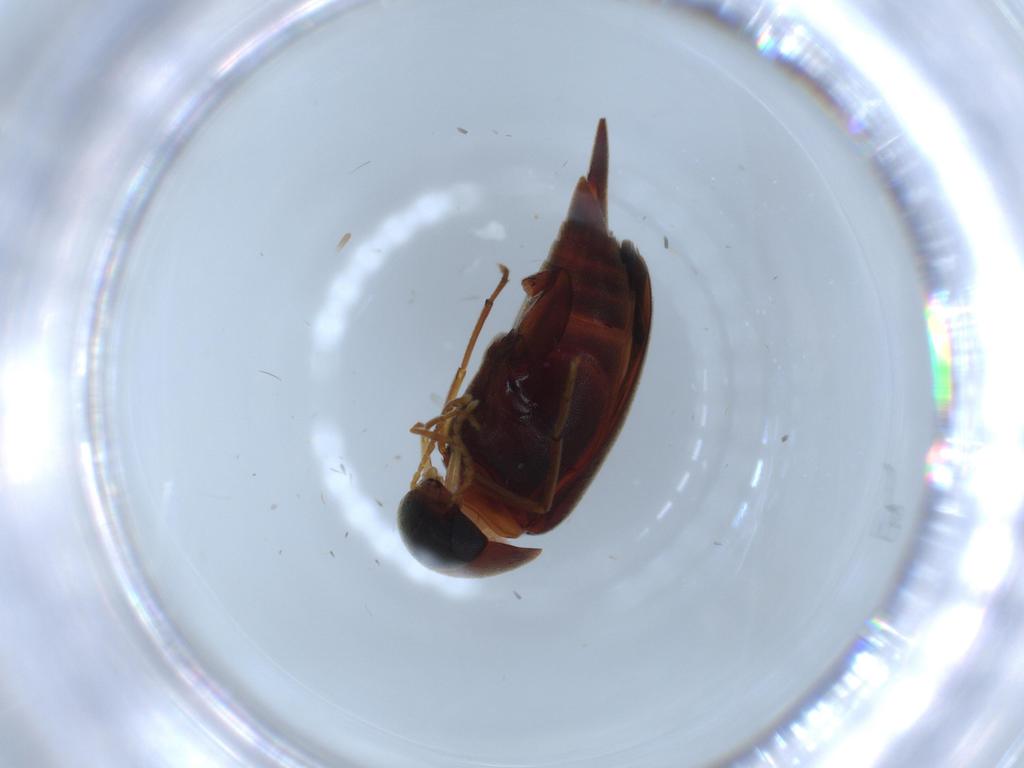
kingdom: Animalia
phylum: Arthropoda
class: Insecta
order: Coleoptera
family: Mordellidae
